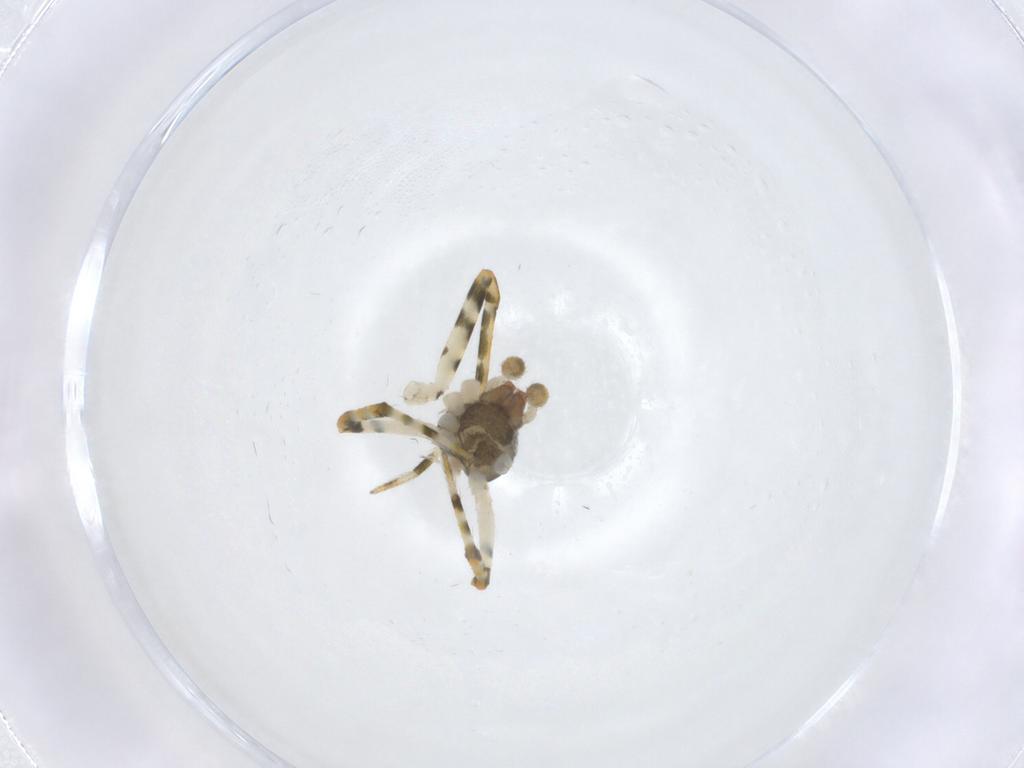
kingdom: Animalia
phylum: Arthropoda
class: Arachnida
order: Araneae
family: Theridiidae
